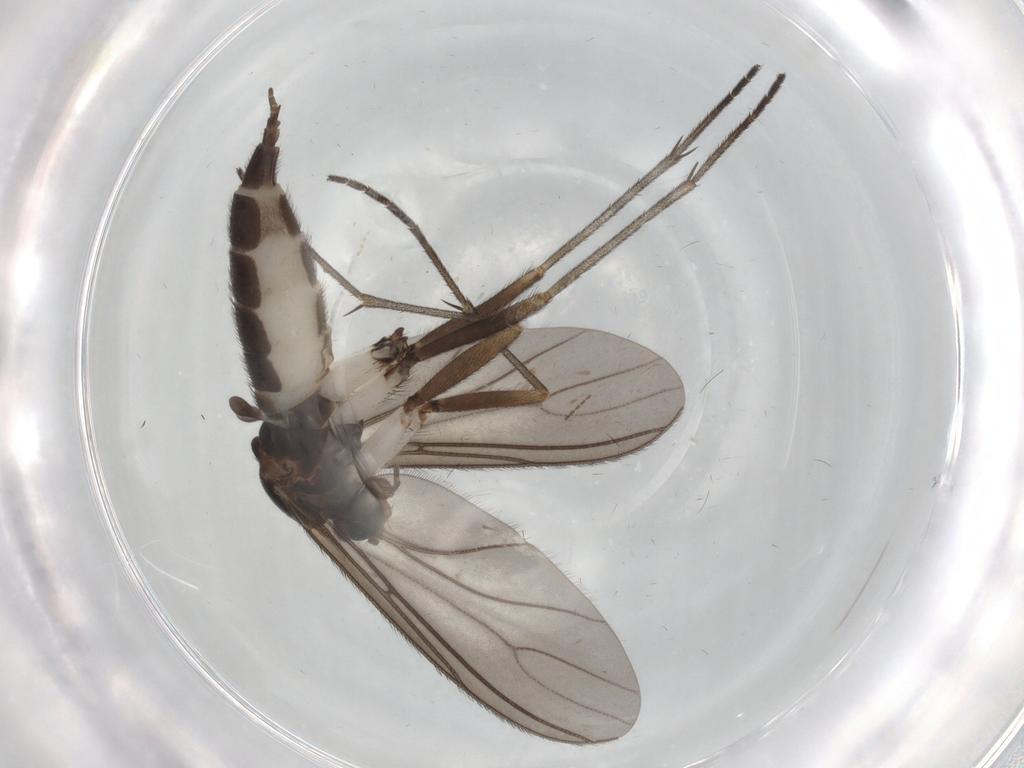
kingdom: Animalia
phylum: Arthropoda
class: Insecta
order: Diptera
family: Sciaridae
